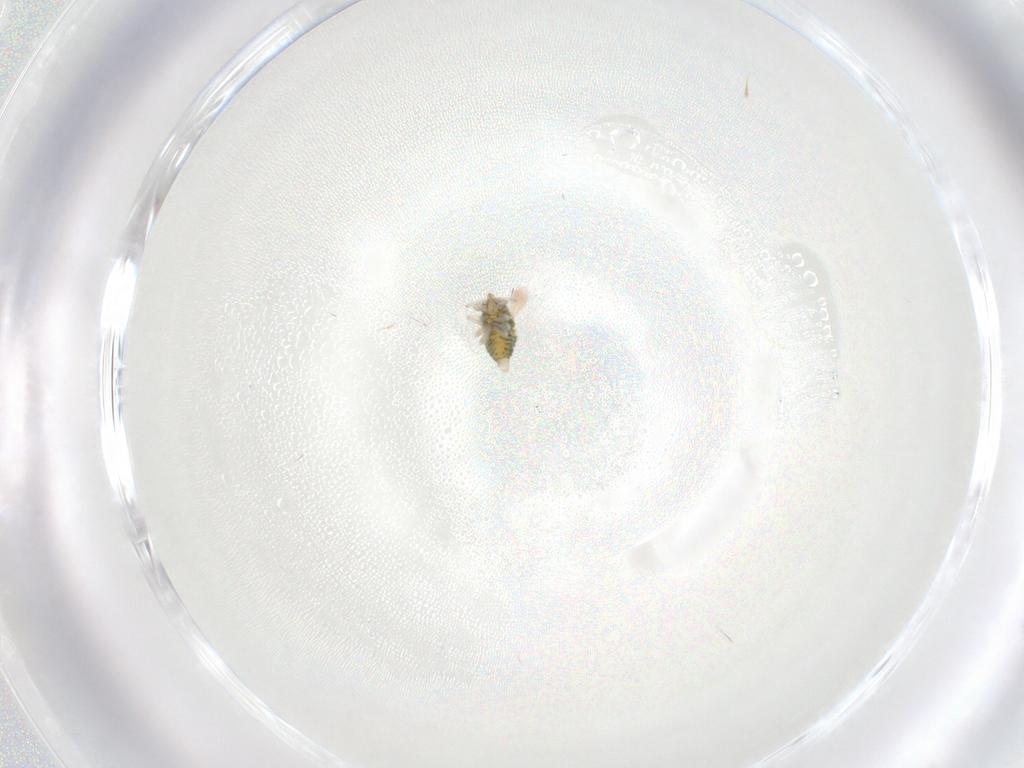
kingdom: Animalia
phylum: Arthropoda
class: Insecta
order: Neuroptera
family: Coniopterygidae
